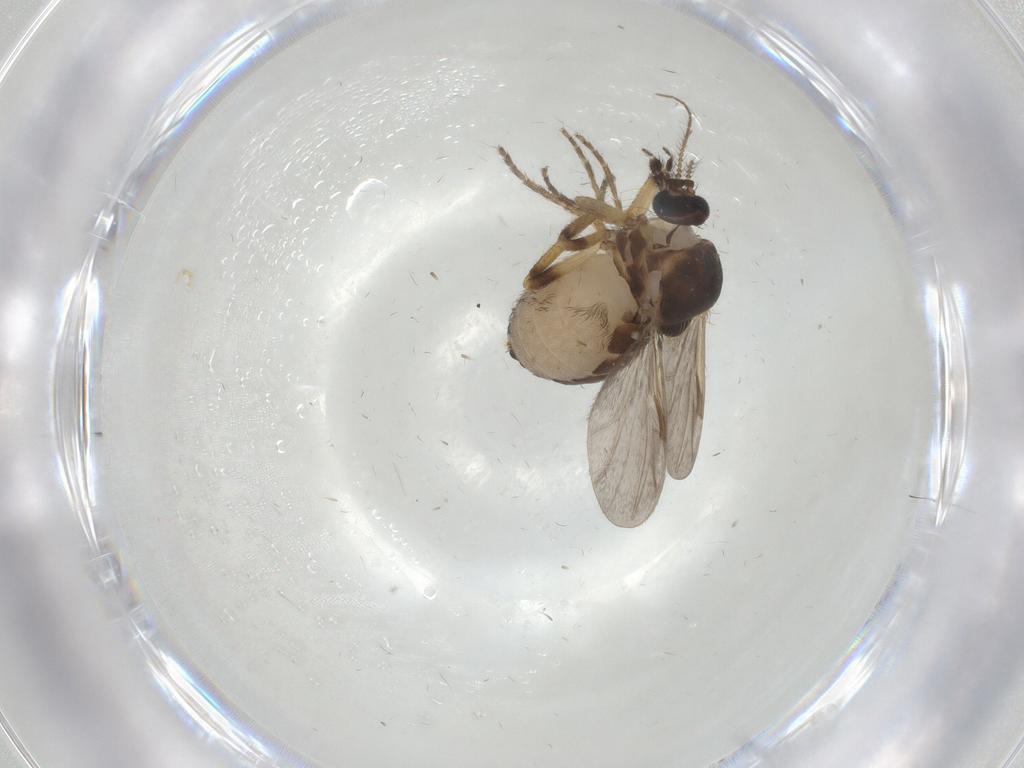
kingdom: Animalia
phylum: Arthropoda
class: Insecta
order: Diptera
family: Ceratopogonidae
